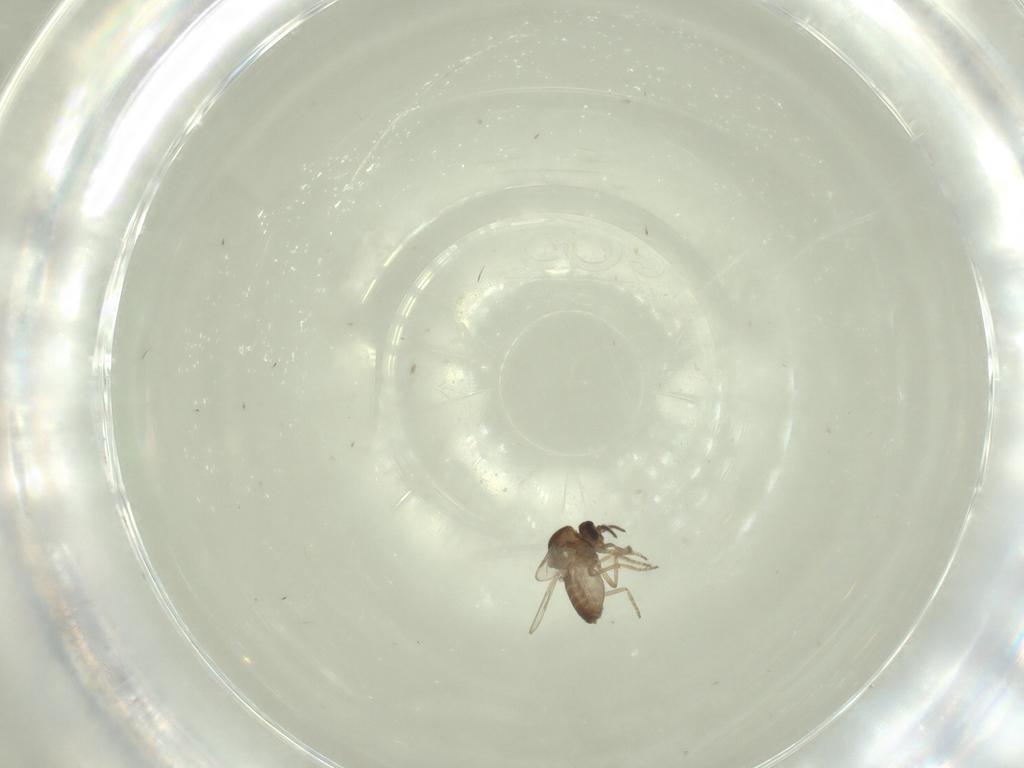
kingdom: Animalia
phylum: Arthropoda
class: Insecta
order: Diptera
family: Ceratopogonidae
